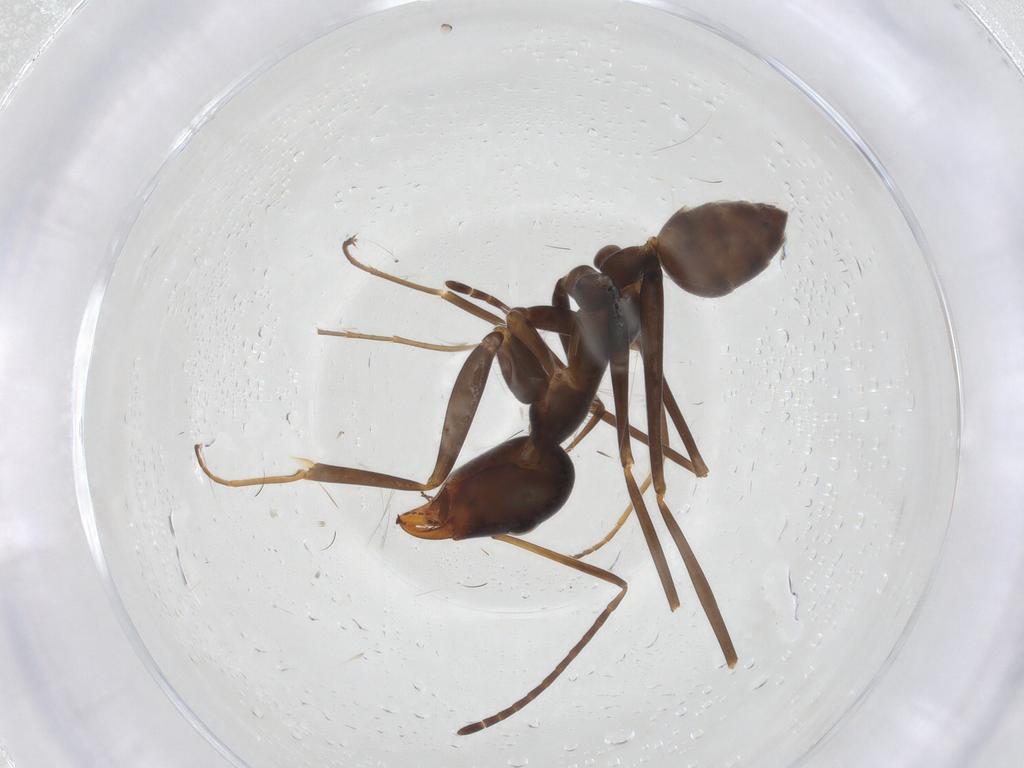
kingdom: Animalia
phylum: Arthropoda
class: Insecta
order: Hymenoptera
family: Formicidae
